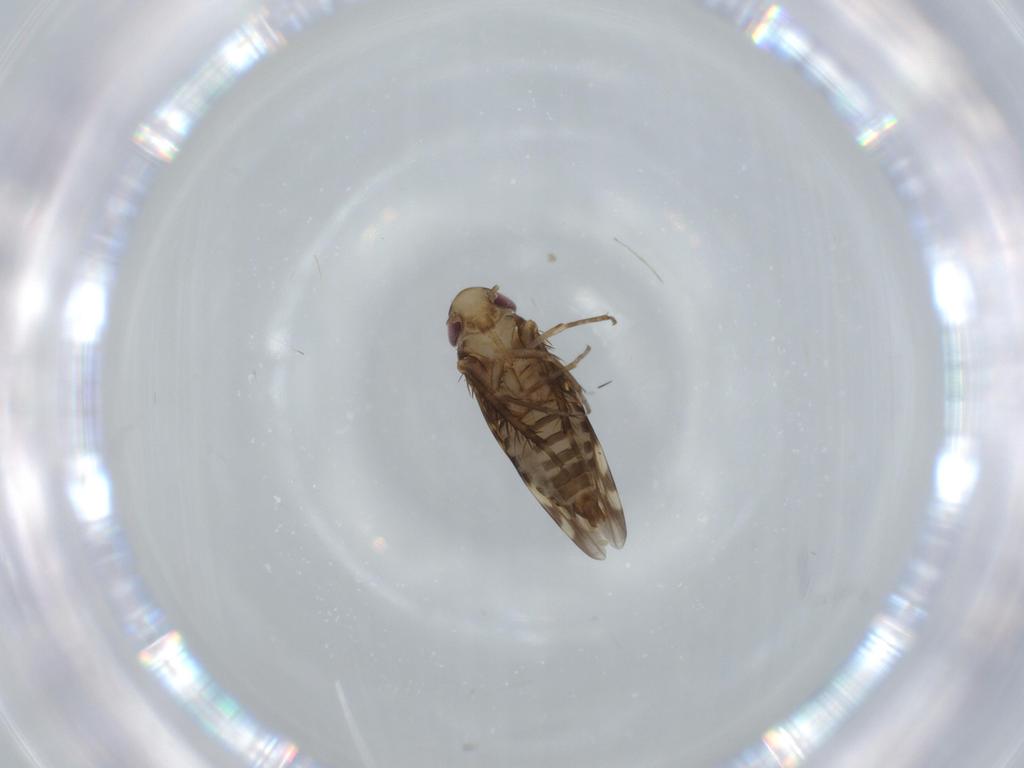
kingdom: Animalia
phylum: Arthropoda
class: Insecta
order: Hemiptera
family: Cicadellidae
